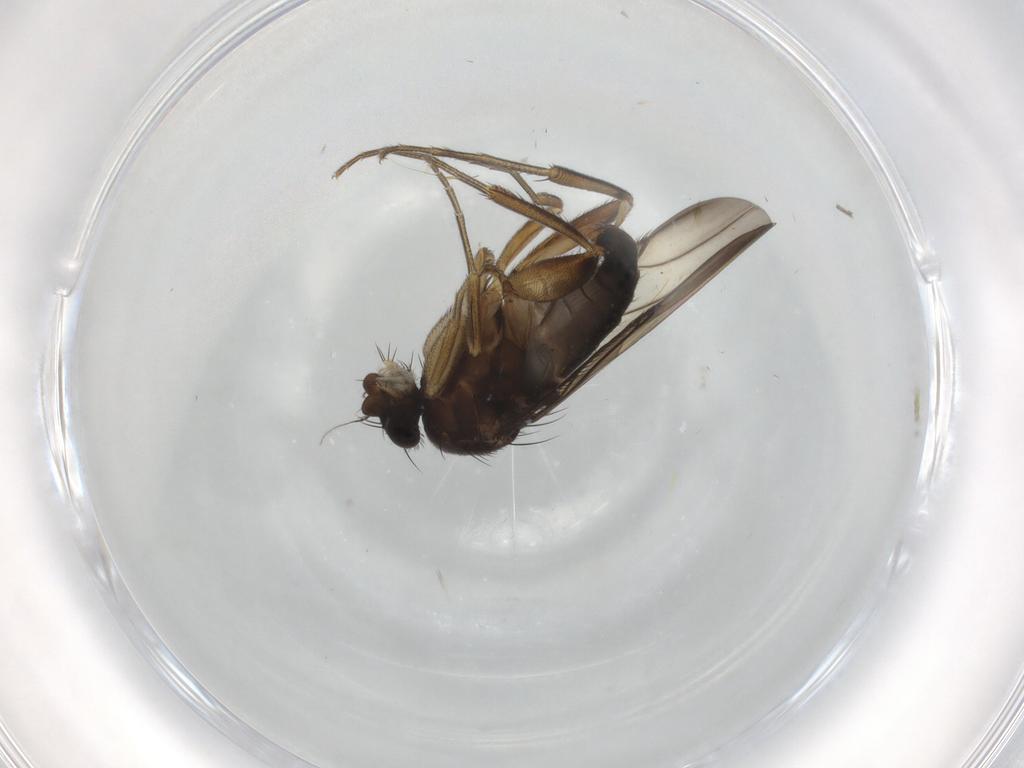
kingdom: Animalia
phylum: Arthropoda
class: Insecta
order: Diptera
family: Phoridae
